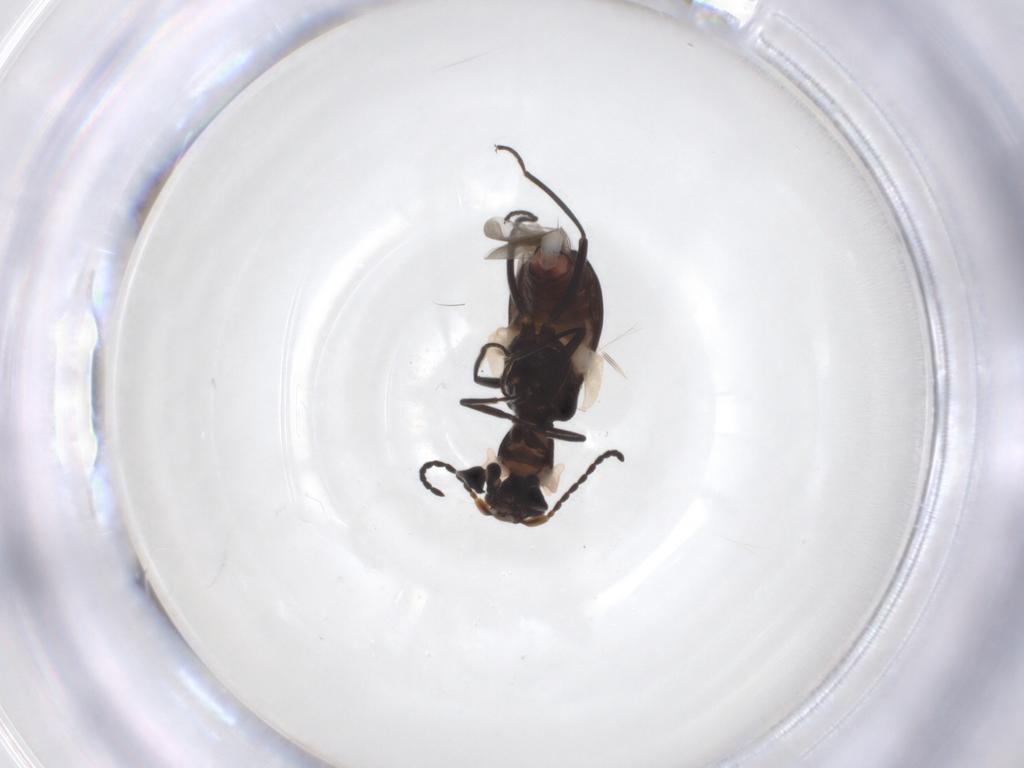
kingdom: Animalia
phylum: Arthropoda
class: Insecta
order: Coleoptera
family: Melyridae
